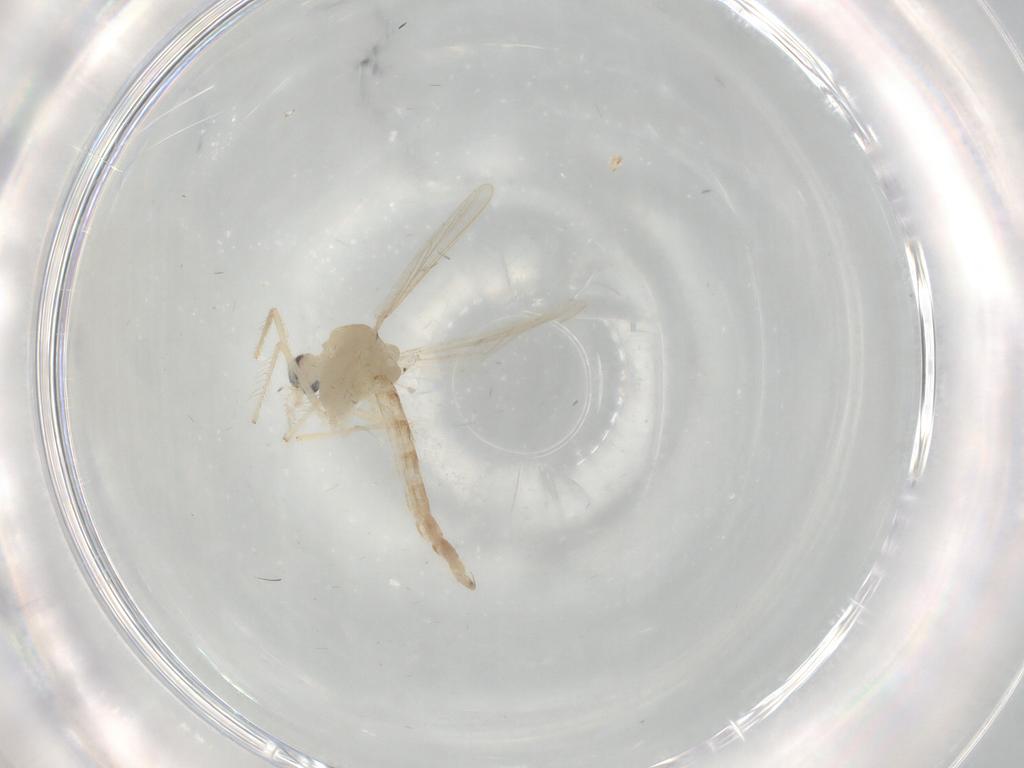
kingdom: Animalia
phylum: Arthropoda
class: Insecta
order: Diptera
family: Chironomidae
